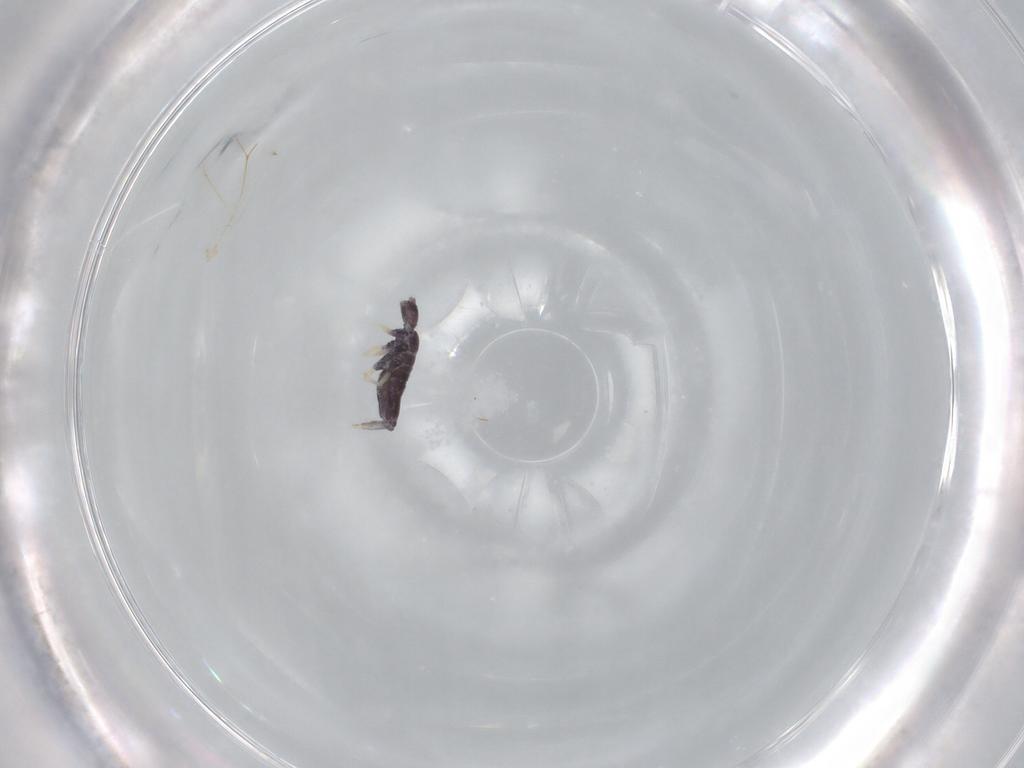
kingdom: Animalia
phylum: Arthropoda
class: Collembola
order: Entomobryomorpha
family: Entomobryidae
